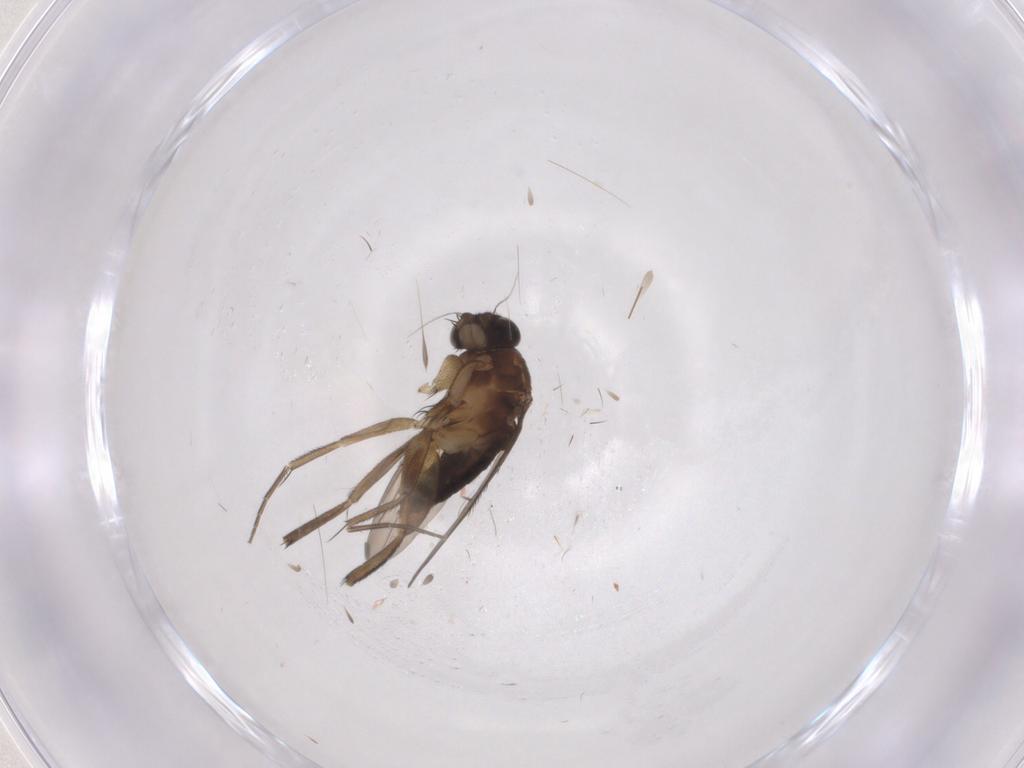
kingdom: Animalia
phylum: Arthropoda
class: Insecta
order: Diptera
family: Phoridae
